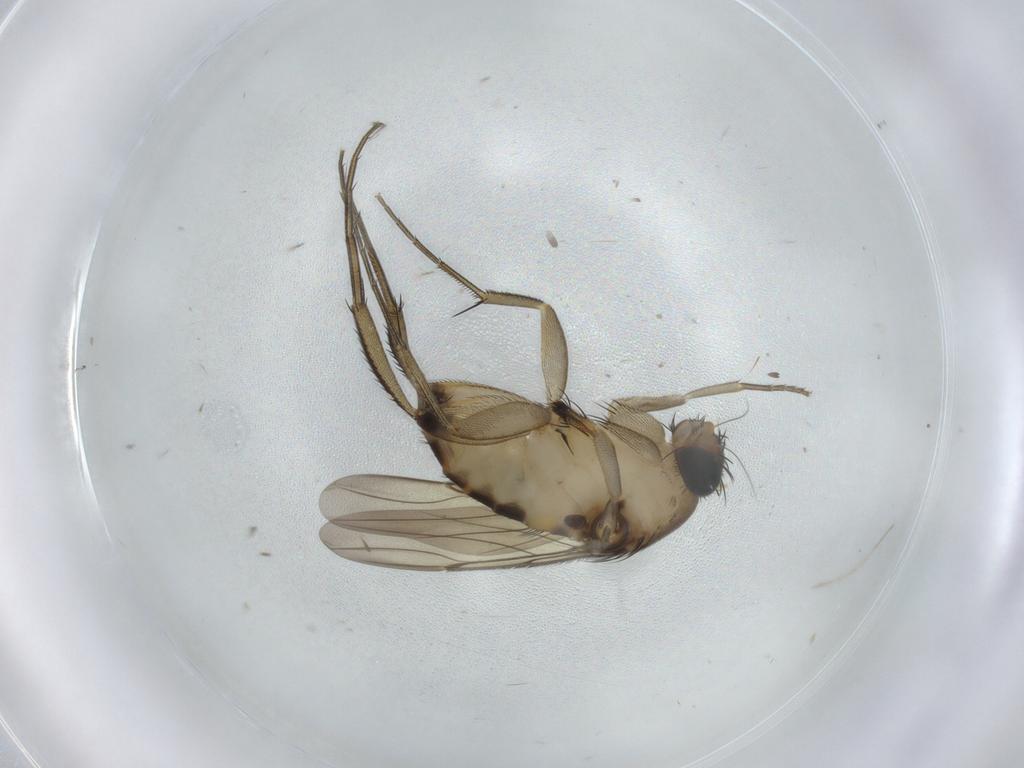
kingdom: Animalia
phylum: Arthropoda
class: Insecta
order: Diptera
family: Phoridae
